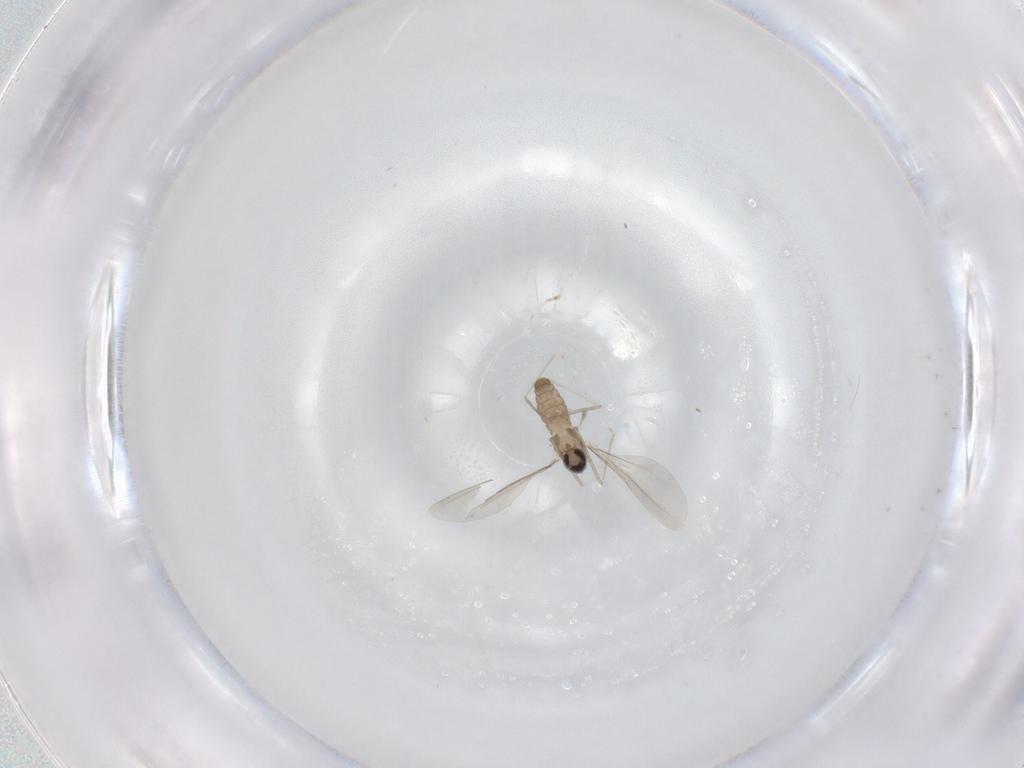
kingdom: Animalia
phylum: Arthropoda
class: Insecta
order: Diptera
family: Cecidomyiidae
